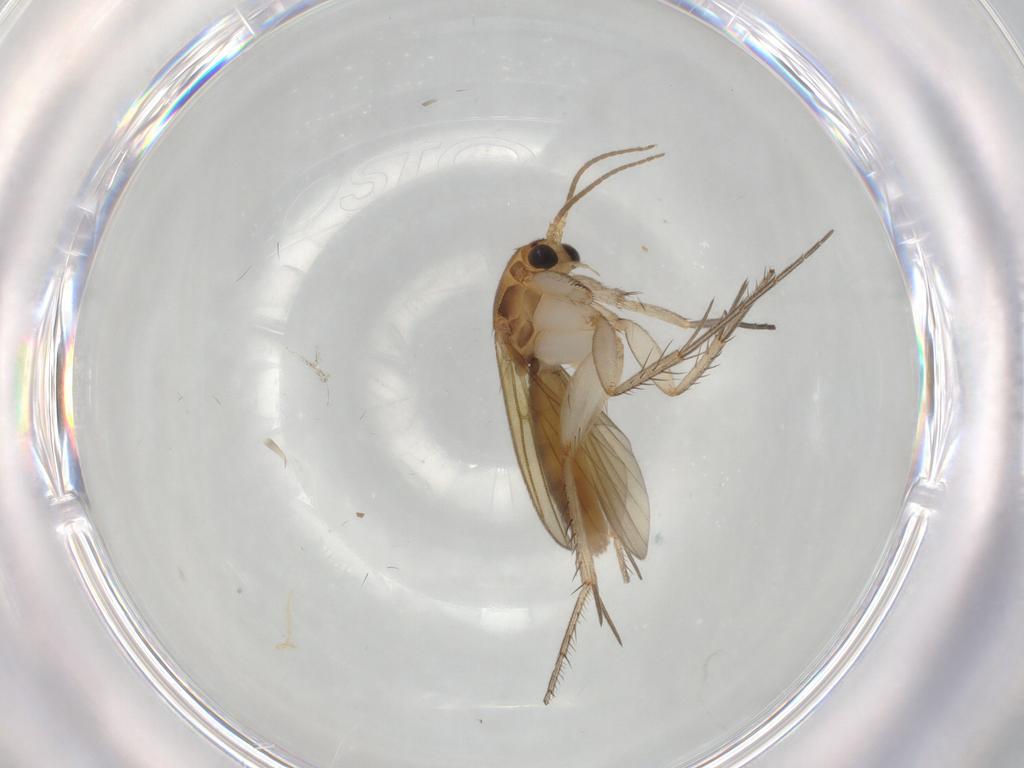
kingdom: Animalia
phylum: Arthropoda
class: Insecta
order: Diptera
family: Mycetophilidae
